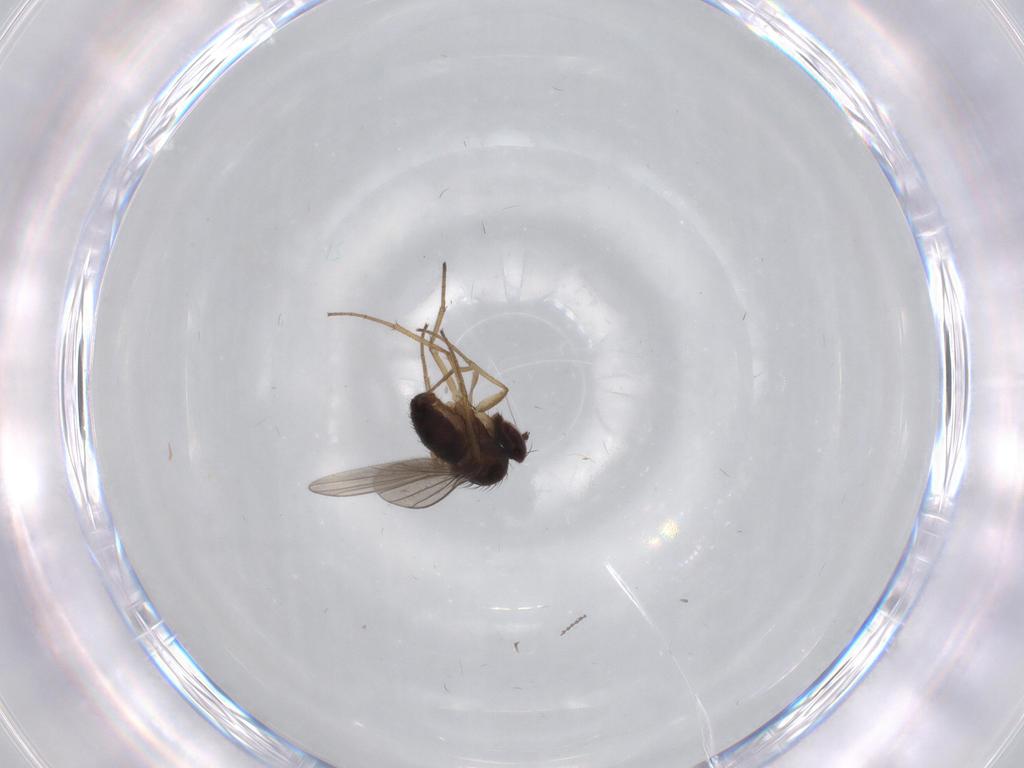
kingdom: Animalia
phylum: Arthropoda
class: Insecta
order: Diptera
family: Dolichopodidae
